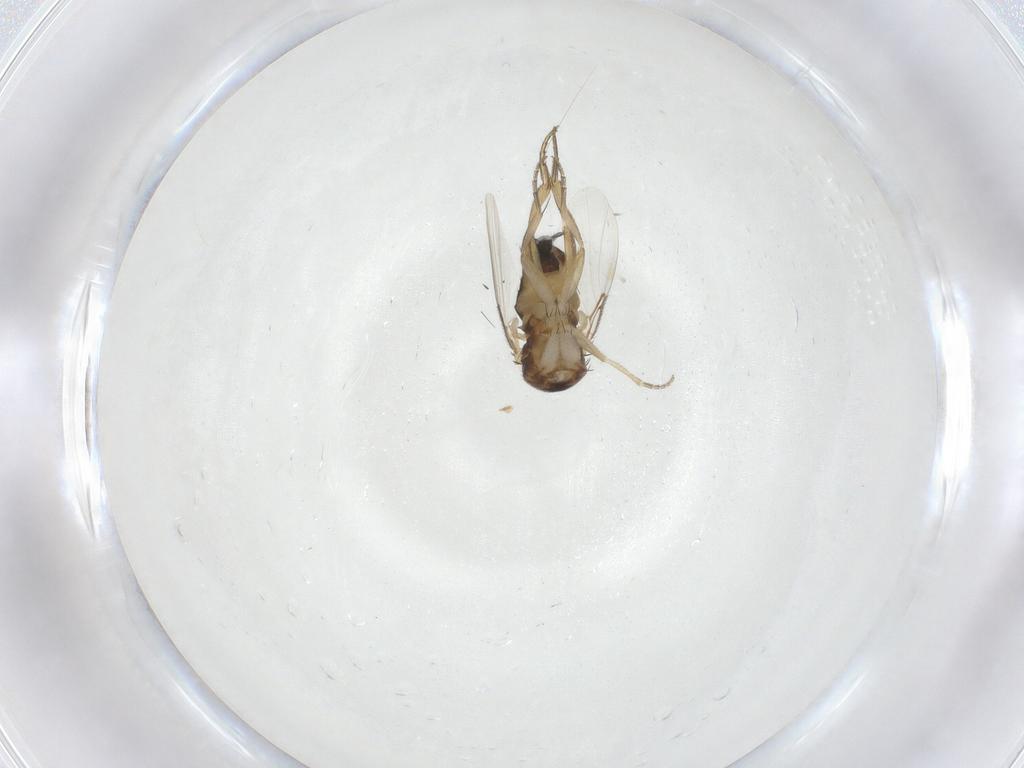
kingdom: Animalia
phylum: Arthropoda
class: Insecta
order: Diptera
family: Phoridae
